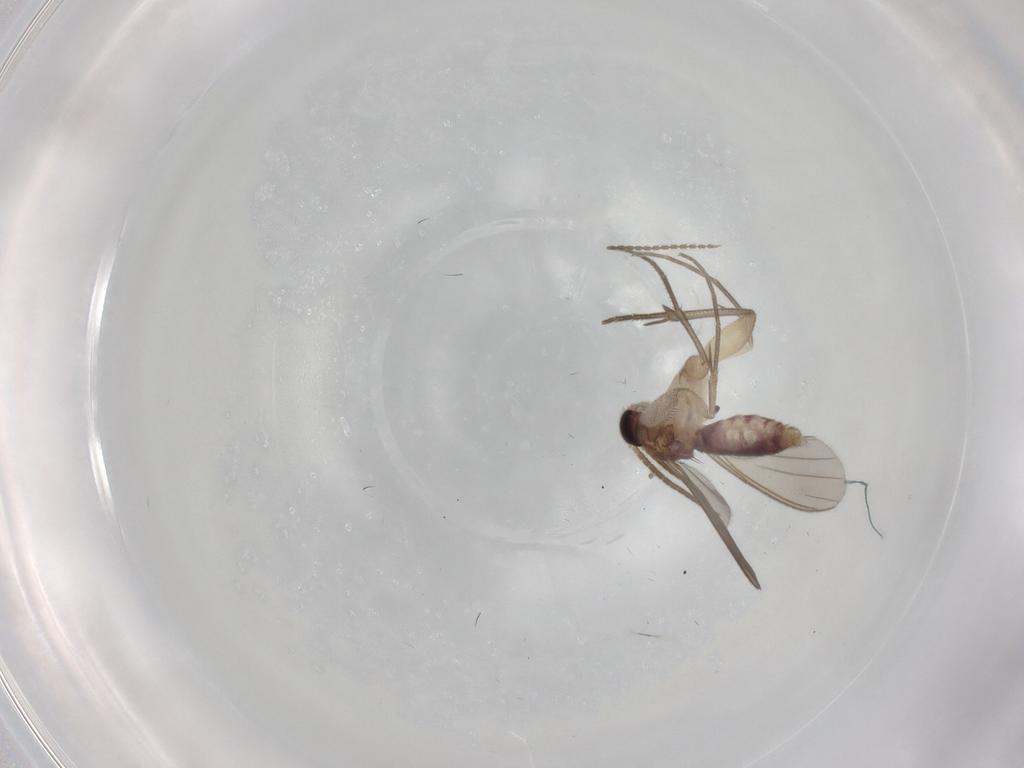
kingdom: Animalia
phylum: Arthropoda
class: Insecta
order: Diptera
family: Mycetophilidae
